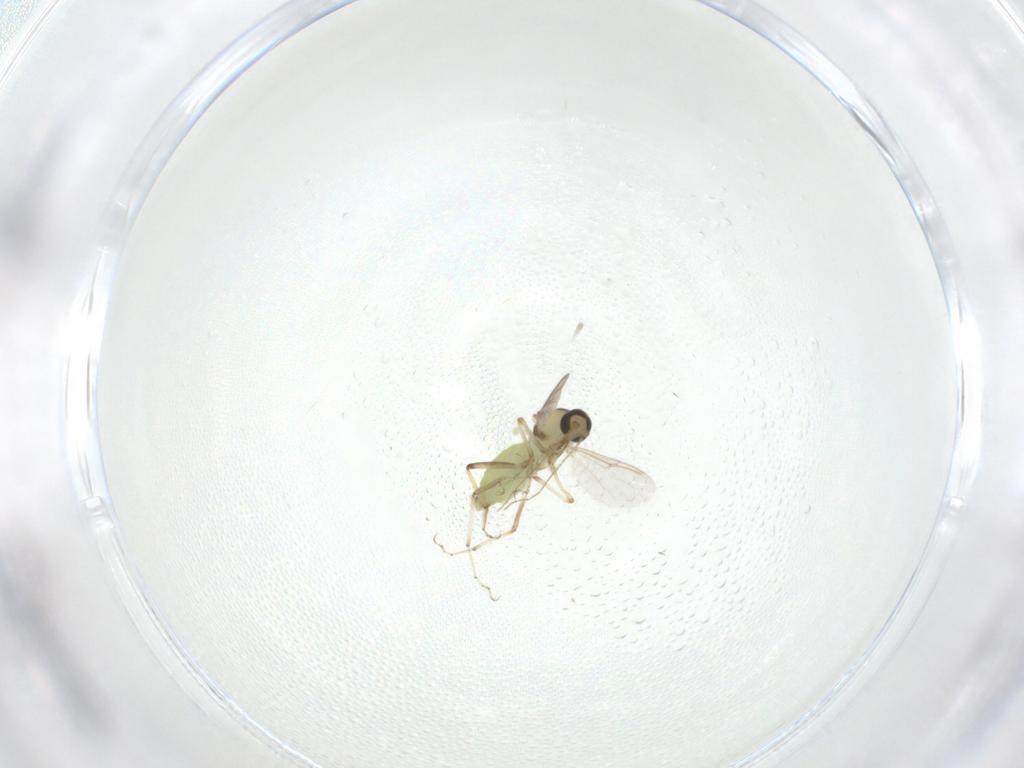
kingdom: Animalia
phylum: Arthropoda
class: Insecta
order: Diptera
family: Ceratopogonidae
